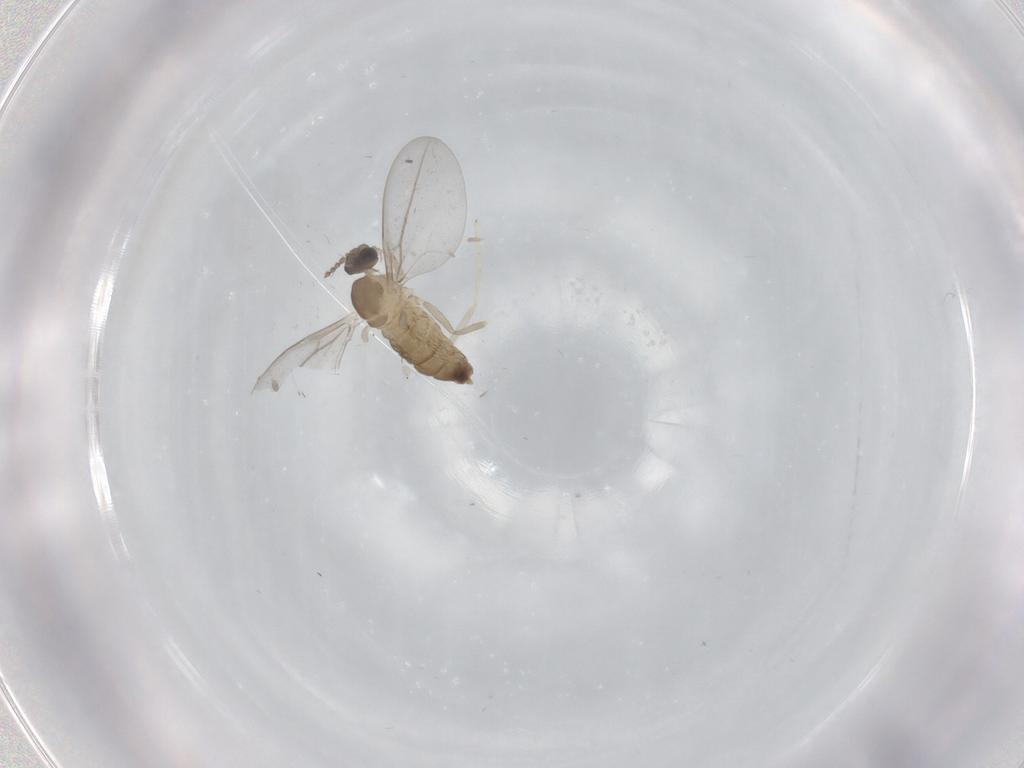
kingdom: Animalia
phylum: Arthropoda
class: Insecta
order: Diptera
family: Cecidomyiidae
